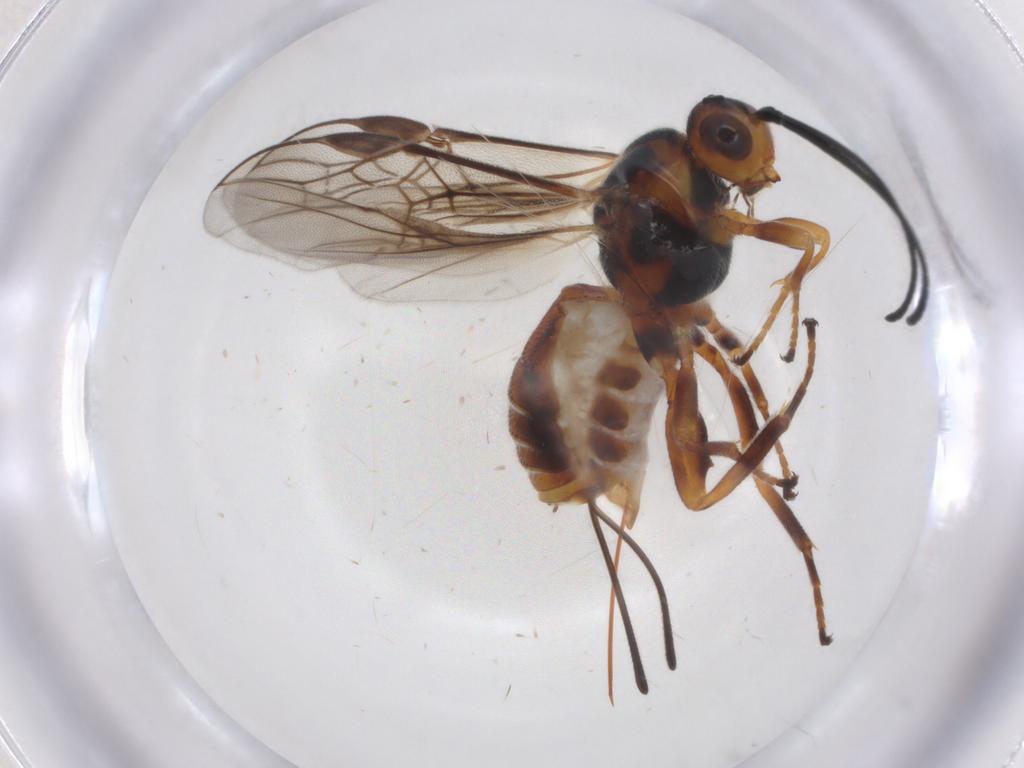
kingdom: Animalia
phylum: Arthropoda
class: Insecta
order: Hymenoptera
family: Braconidae
